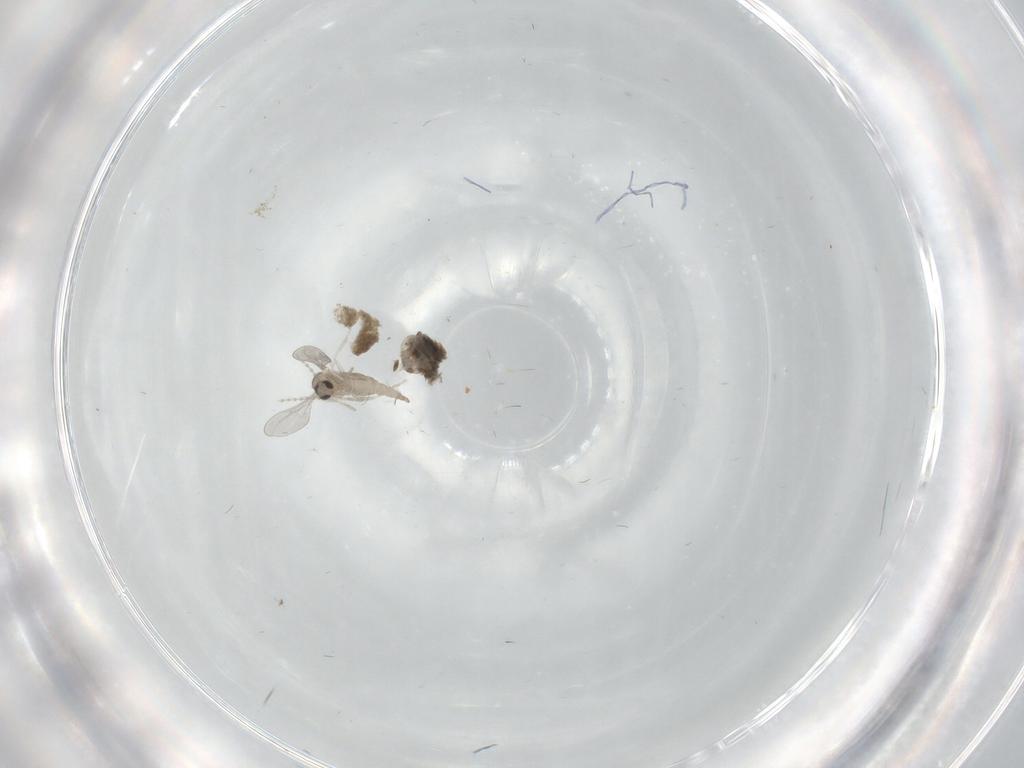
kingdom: Animalia
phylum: Arthropoda
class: Insecta
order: Diptera
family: Cecidomyiidae
